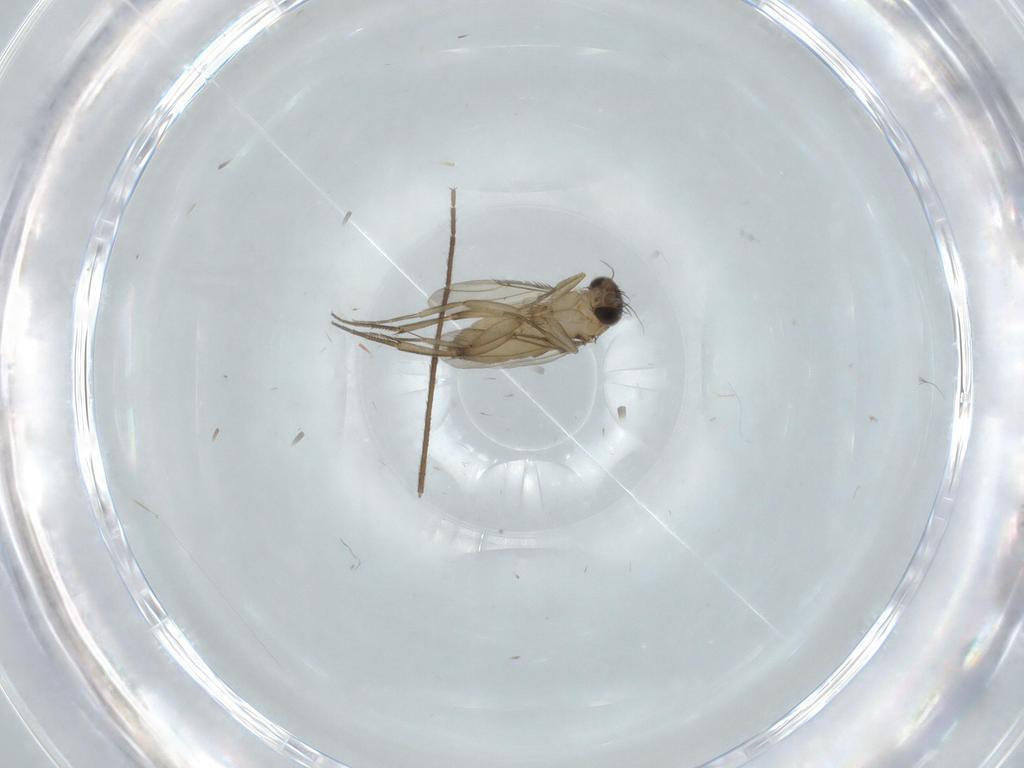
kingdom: Animalia
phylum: Arthropoda
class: Insecta
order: Diptera
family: Phoridae
